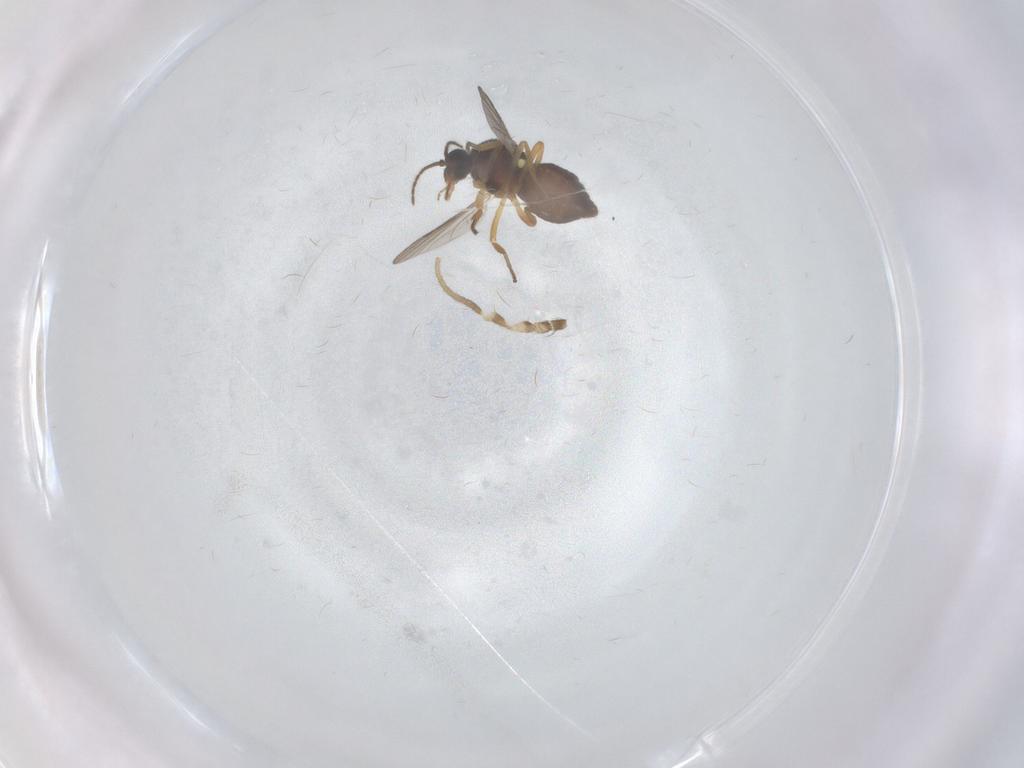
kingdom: Animalia
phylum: Arthropoda
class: Insecta
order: Diptera
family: Ceratopogonidae
